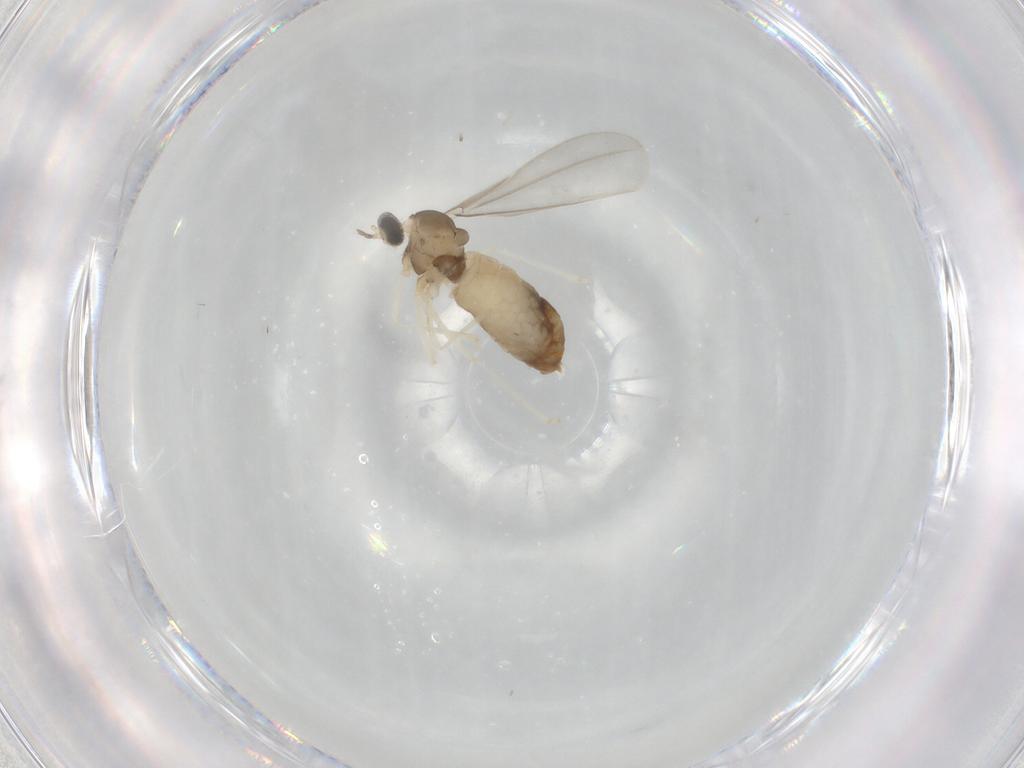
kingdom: Animalia
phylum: Arthropoda
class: Insecta
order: Diptera
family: Cecidomyiidae
